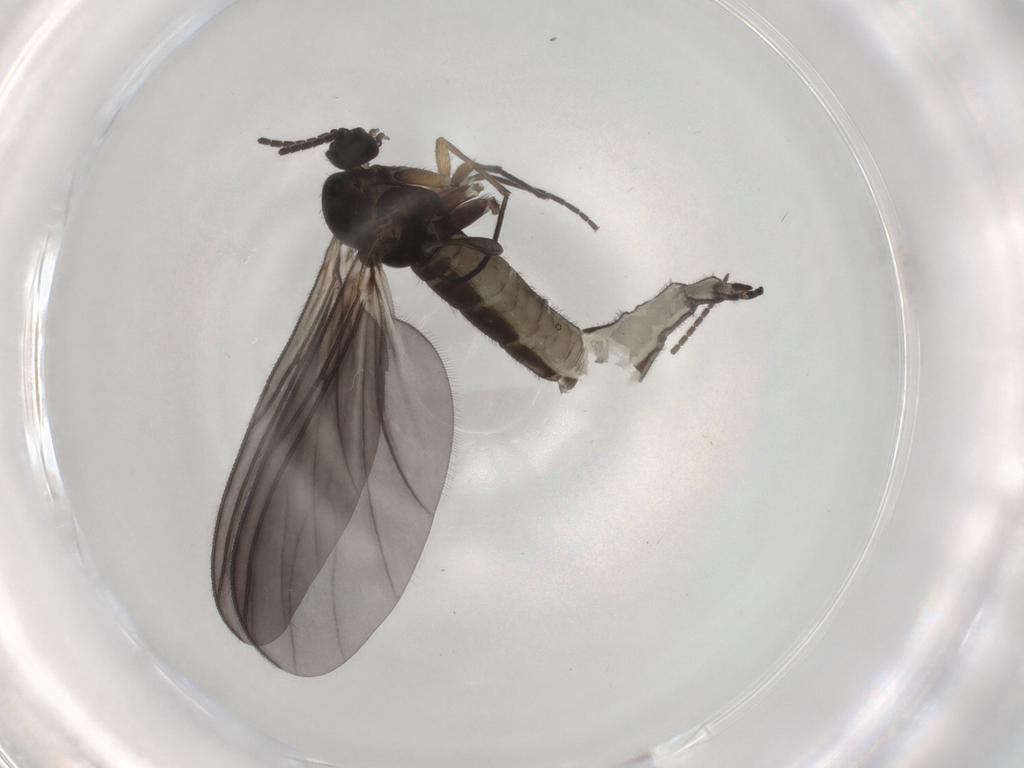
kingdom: Animalia
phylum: Arthropoda
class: Insecta
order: Diptera
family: Sciaridae
